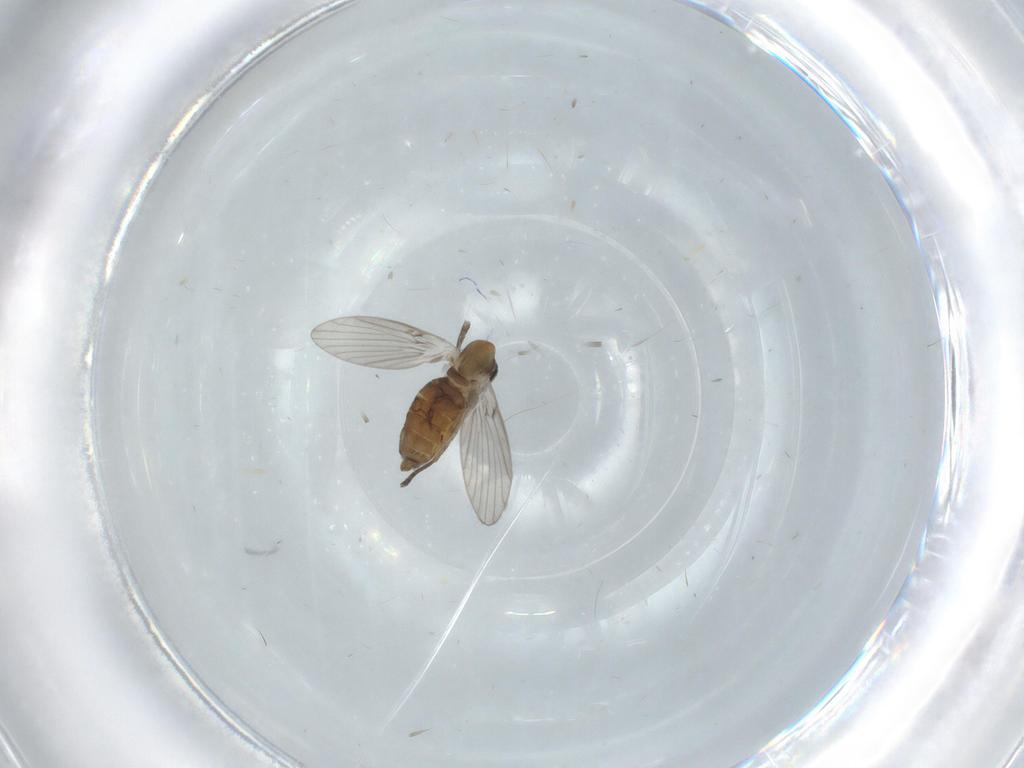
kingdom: Animalia
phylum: Arthropoda
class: Insecta
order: Diptera
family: Psychodidae
